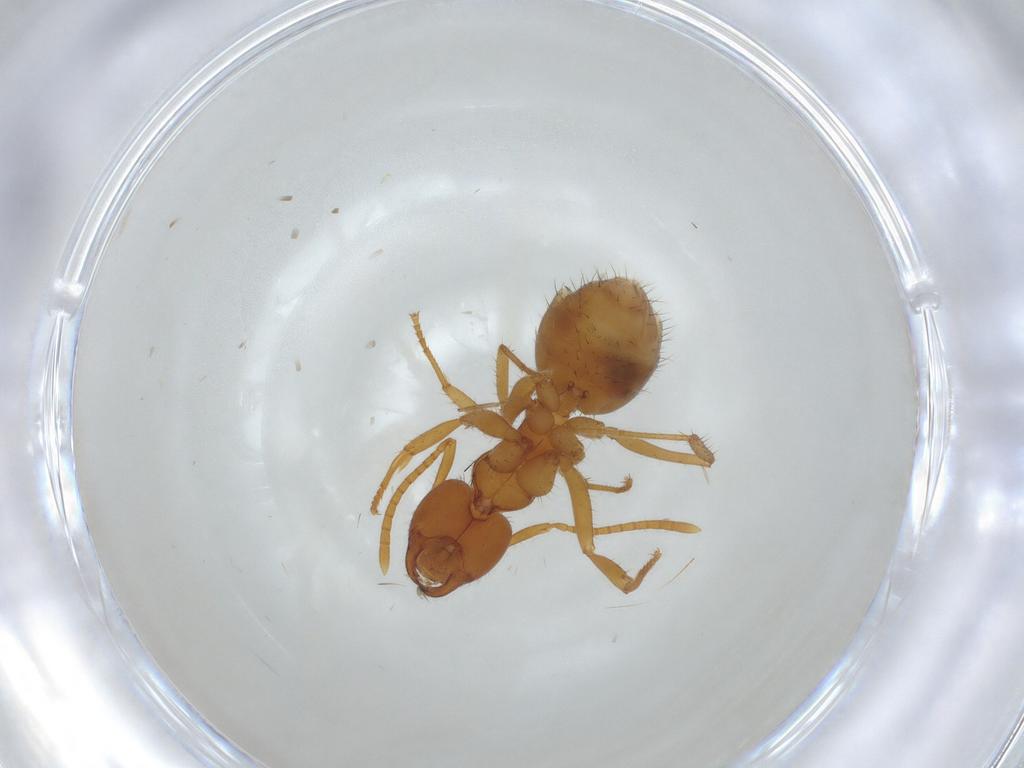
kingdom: Animalia
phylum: Arthropoda
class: Insecta
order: Hymenoptera
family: Formicidae
